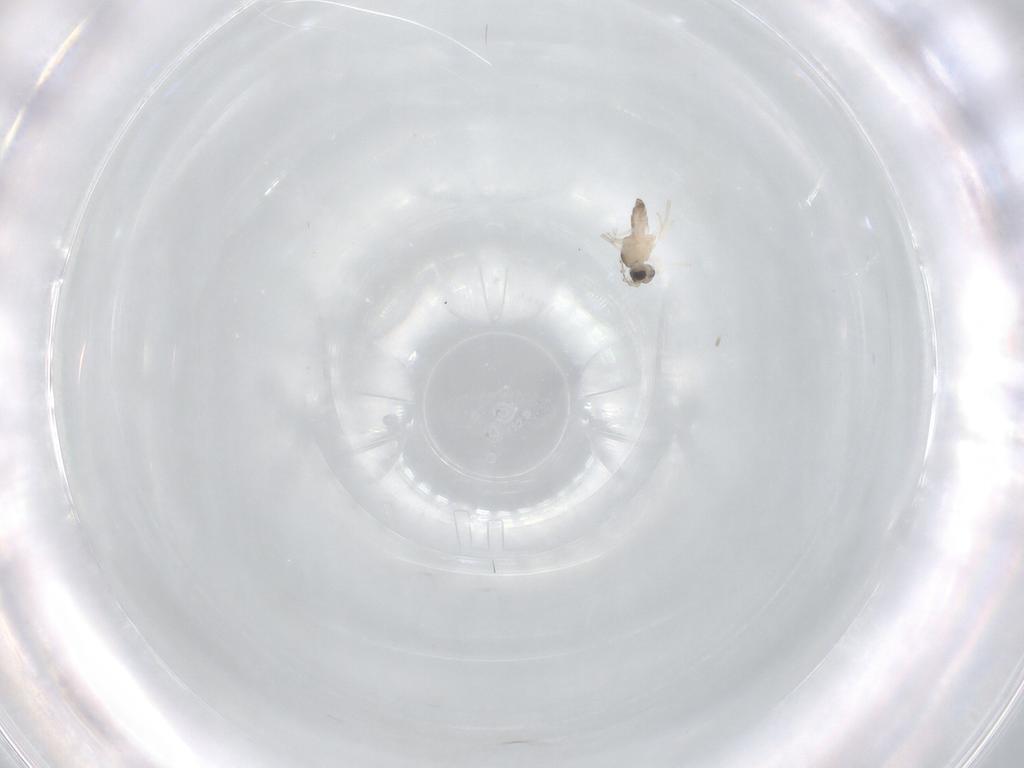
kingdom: Animalia
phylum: Arthropoda
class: Insecta
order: Diptera
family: Cecidomyiidae
